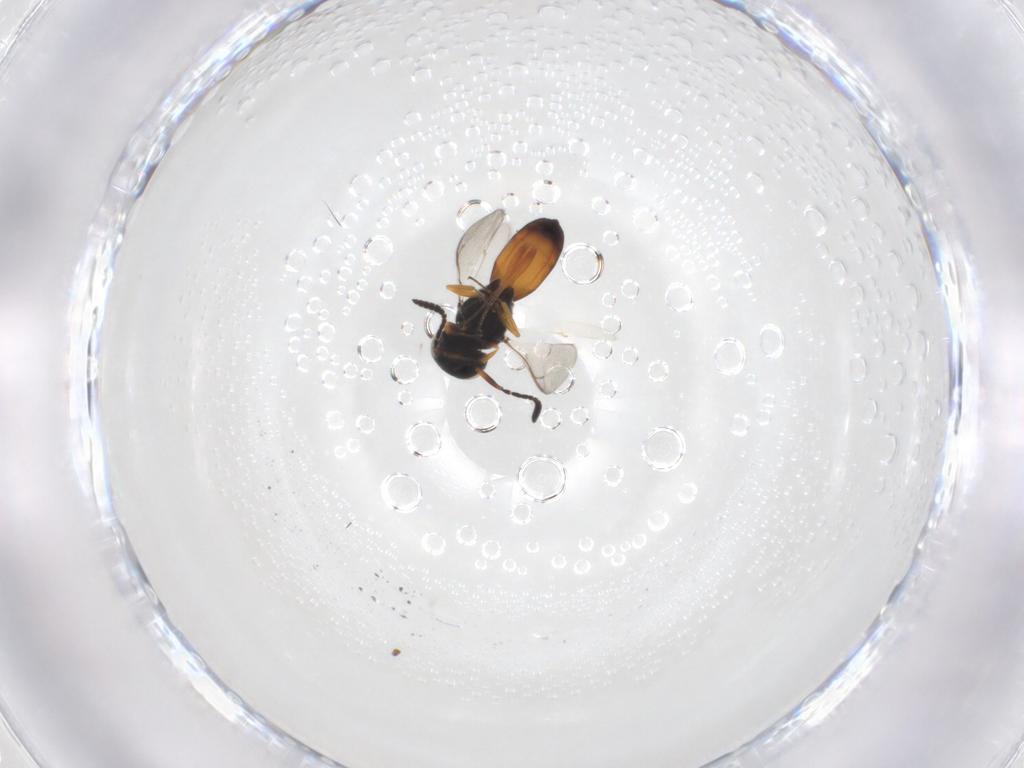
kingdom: Animalia
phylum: Arthropoda
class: Insecta
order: Hymenoptera
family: Scelionidae
